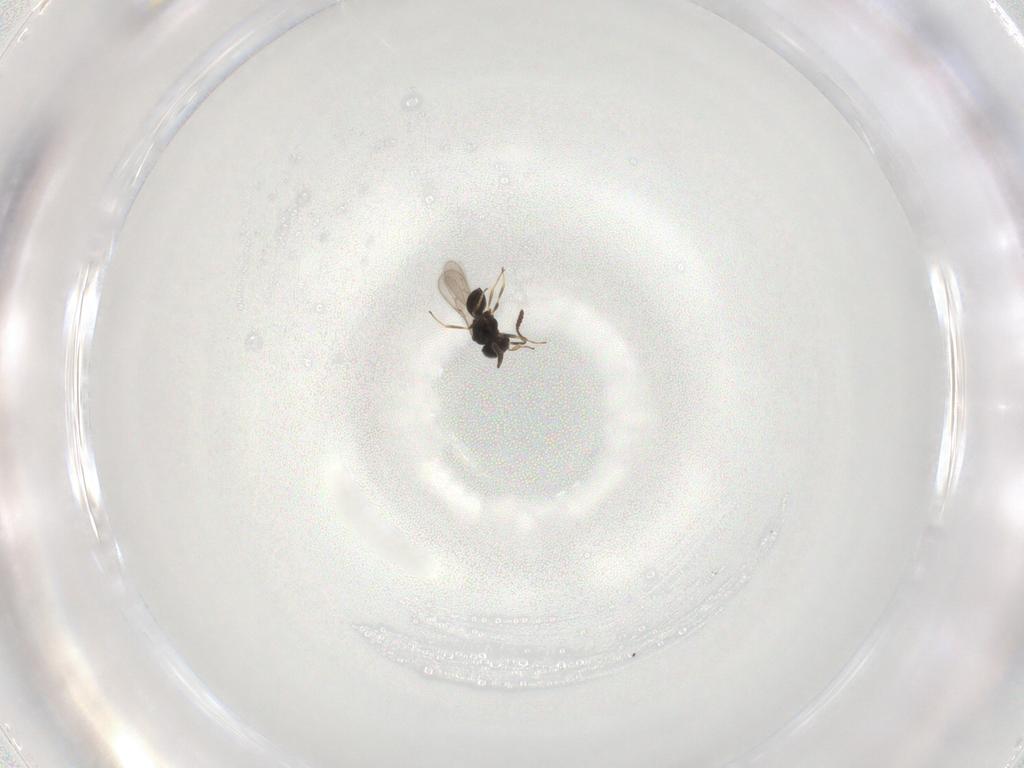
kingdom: Animalia
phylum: Arthropoda
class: Insecta
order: Hymenoptera
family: Scelionidae
